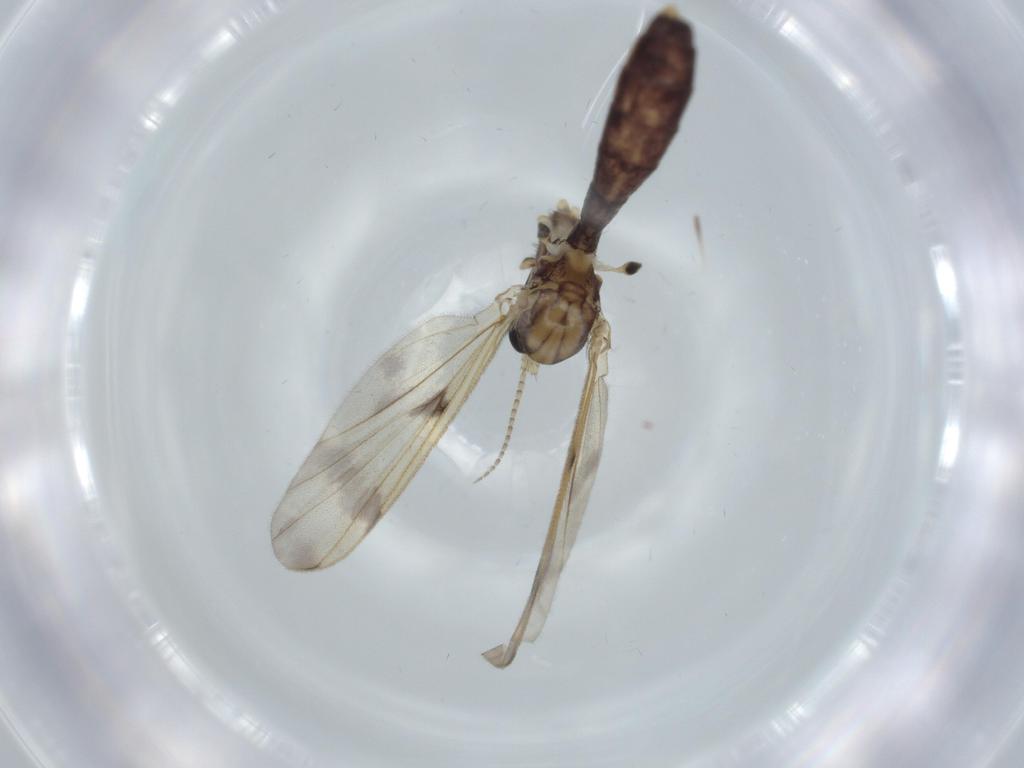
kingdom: Animalia
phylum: Arthropoda
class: Insecta
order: Diptera
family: Mycetophilidae
